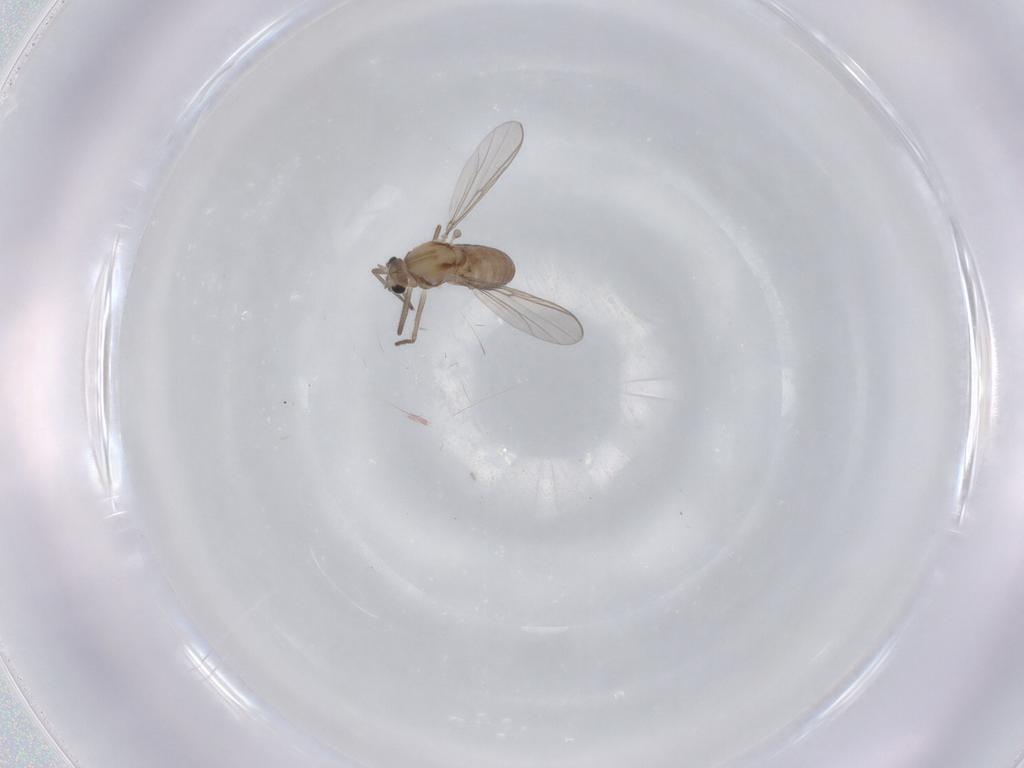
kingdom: Animalia
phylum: Arthropoda
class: Insecta
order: Diptera
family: Chironomidae
